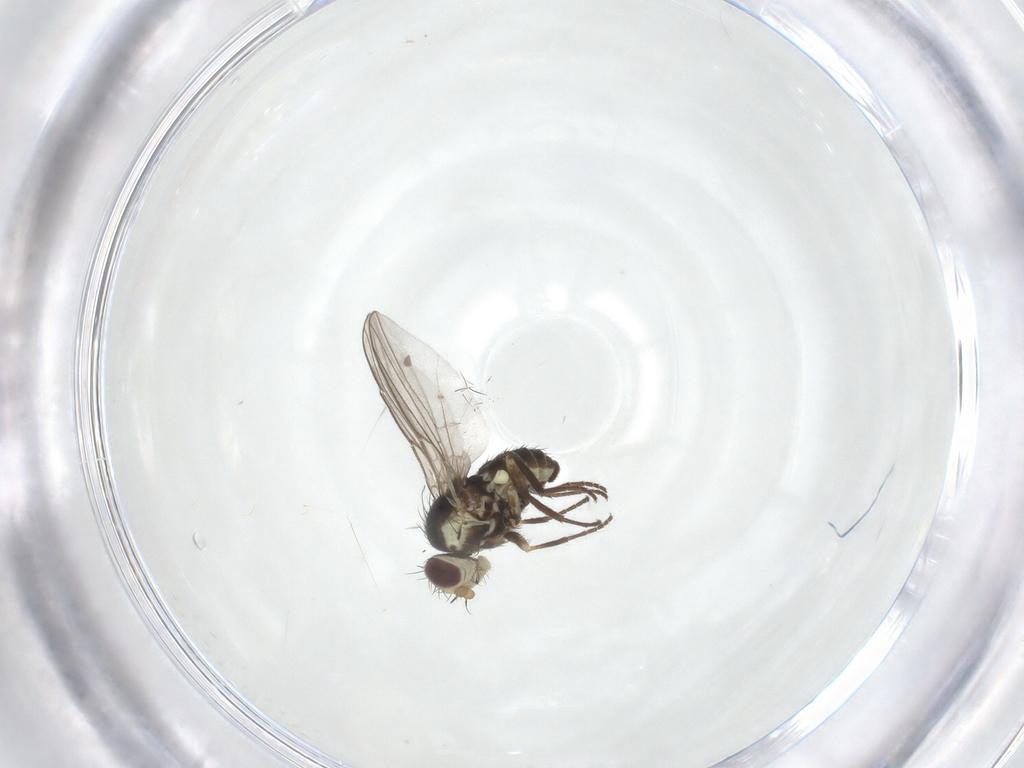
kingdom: Animalia
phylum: Arthropoda
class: Insecta
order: Diptera
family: Agromyzidae
